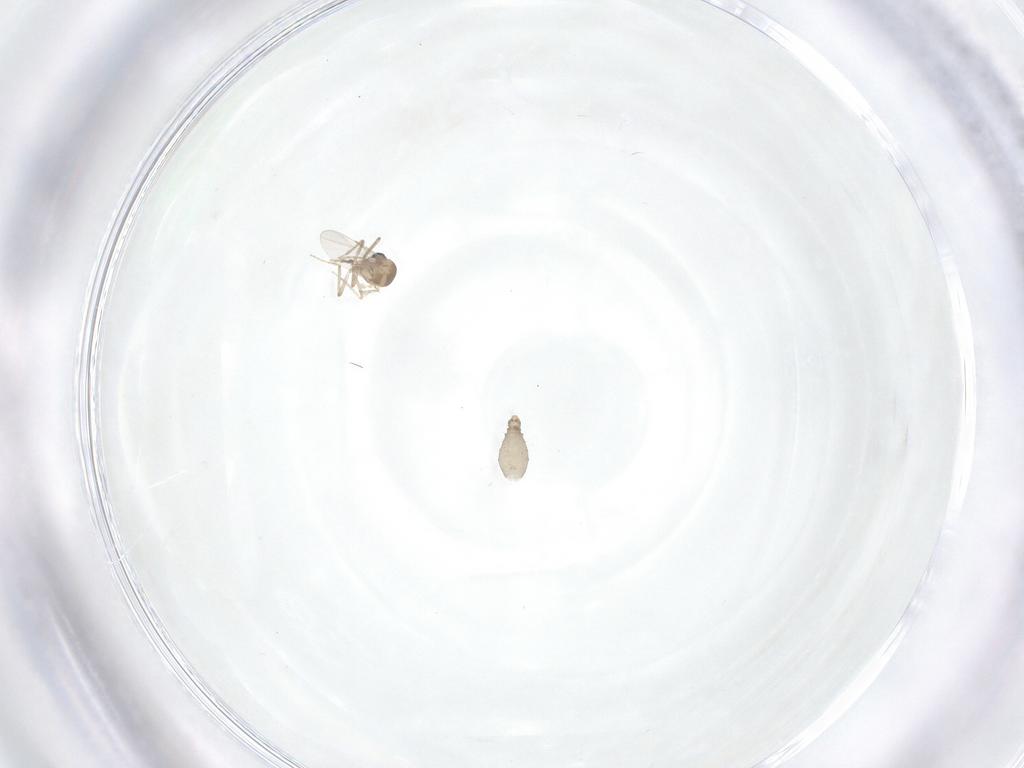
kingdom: Animalia
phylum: Arthropoda
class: Insecta
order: Diptera
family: Ceratopogonidae
